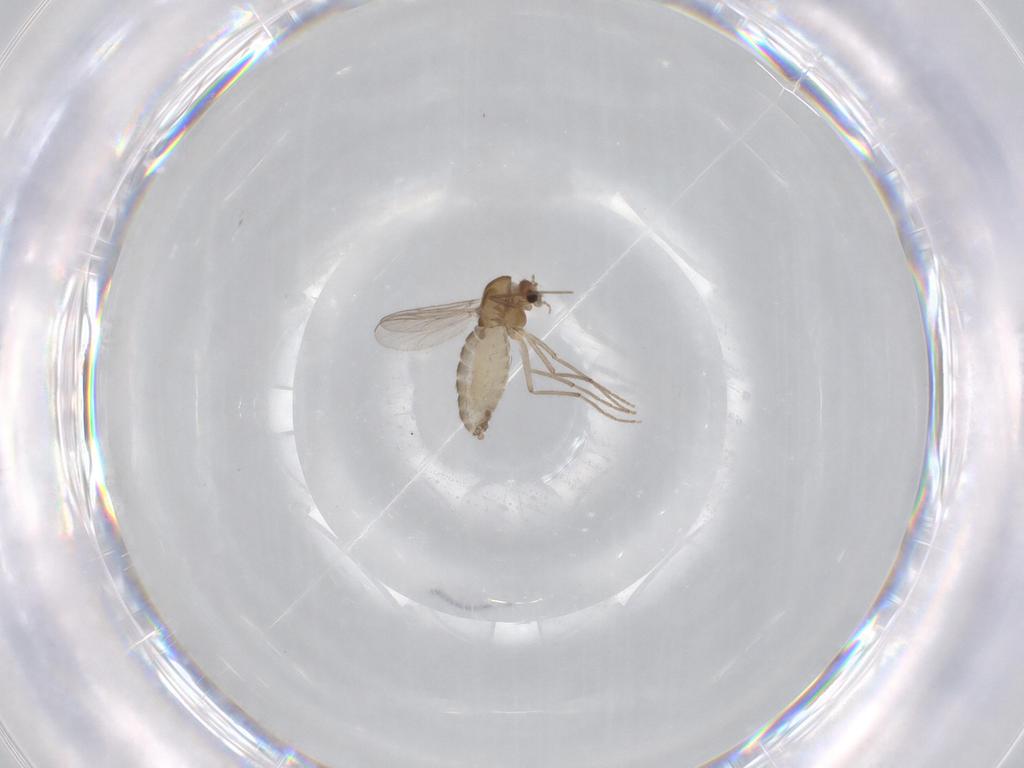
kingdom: Animalia
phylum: Arthropoda
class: Insecta
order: Diptera
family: Chironomidae
